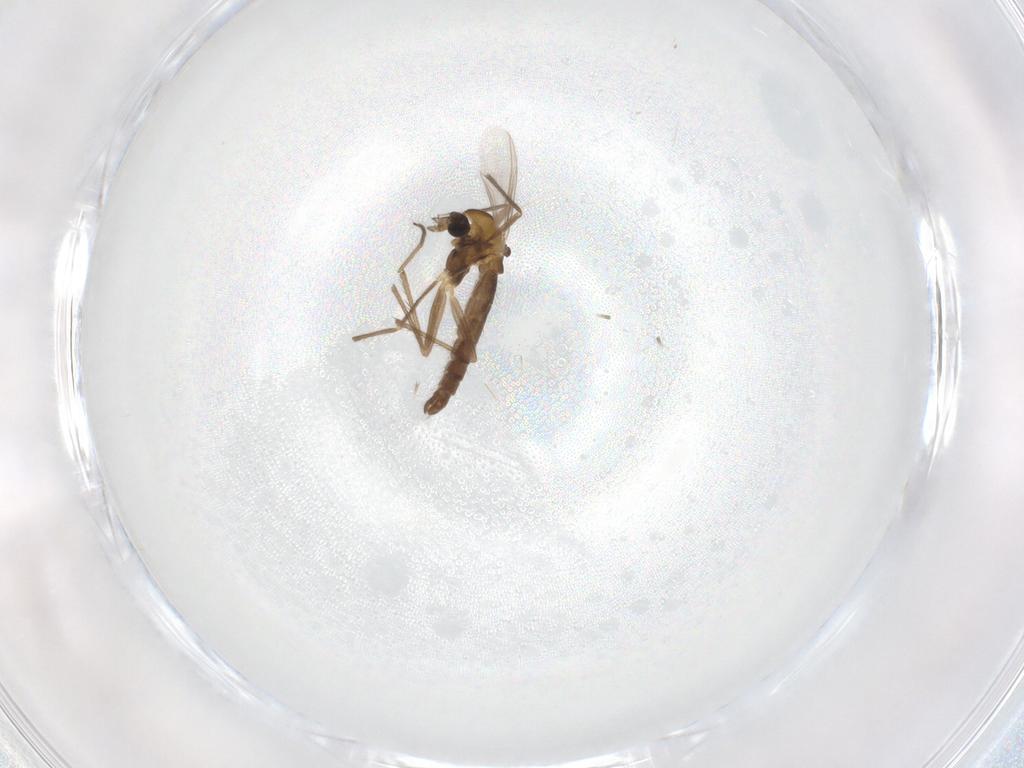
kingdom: Animalia
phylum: Arthropoda
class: Insecta
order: Diptera
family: Chironomidae
